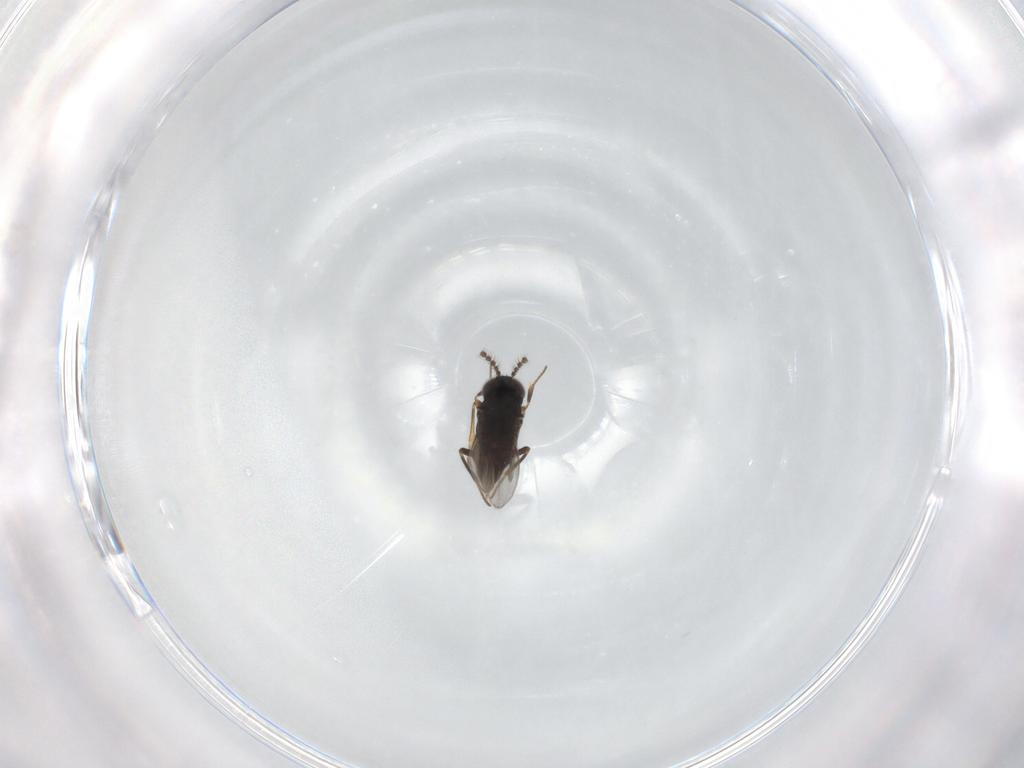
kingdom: Animalia
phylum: Arthropoda
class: Insecta
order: Hymenoptera
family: Encyrtidae
